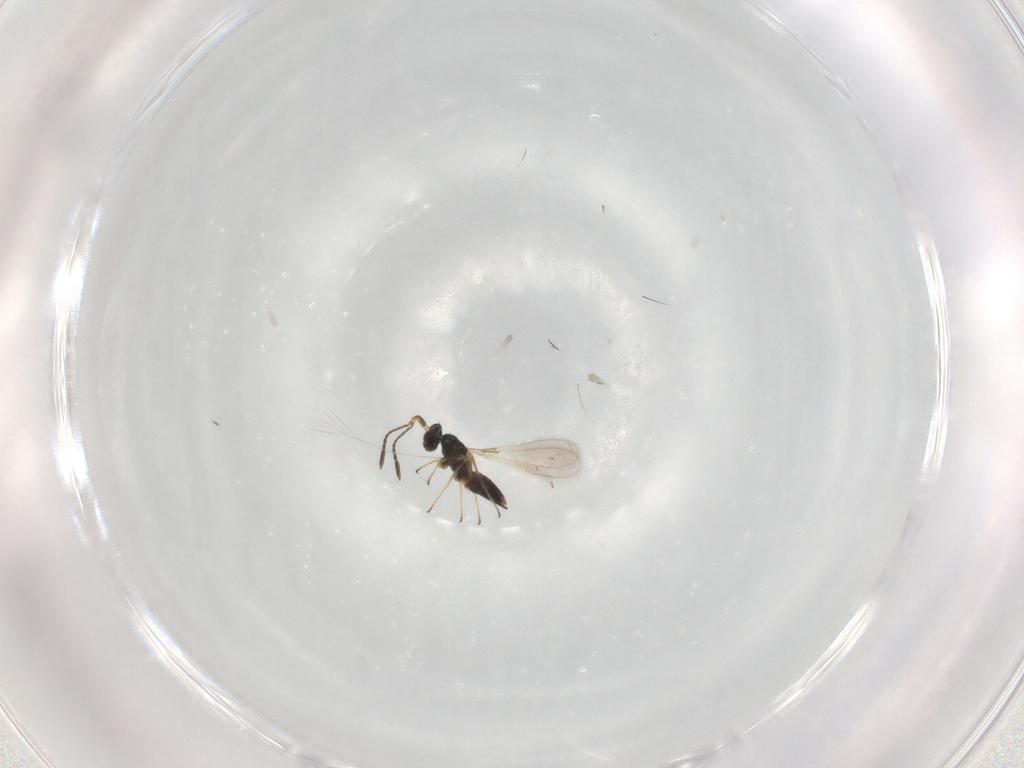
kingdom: Animalia
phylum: Arthropoda
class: Insecta
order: Hymenoptera
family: Mymaridae
